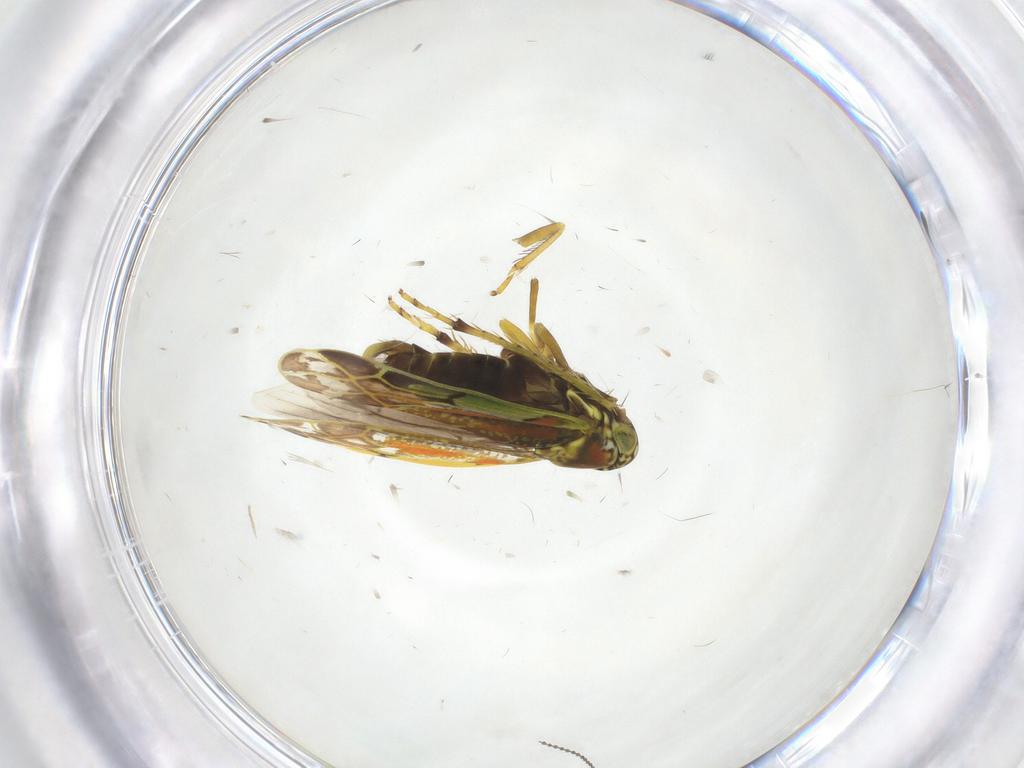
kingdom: Animalia
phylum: Arthropoda
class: Insecta
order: Hemiptera
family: Cicadellidae
